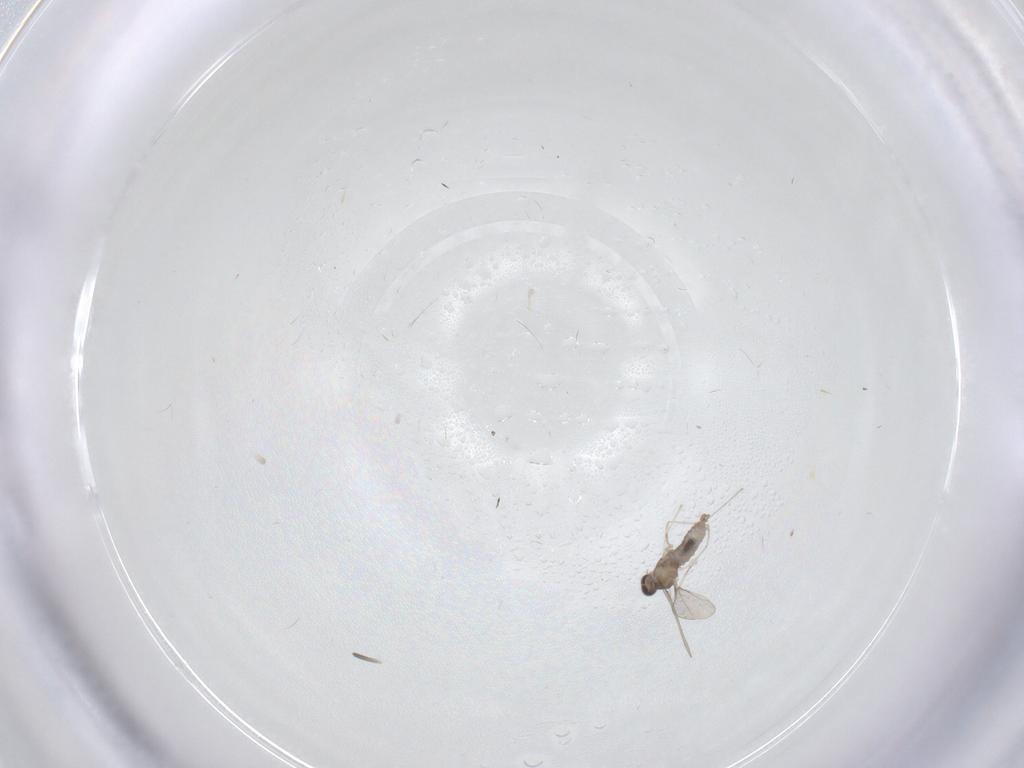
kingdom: Animalia
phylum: Arthropoda
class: Insecta
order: Diptera
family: Cecidomyiidae
